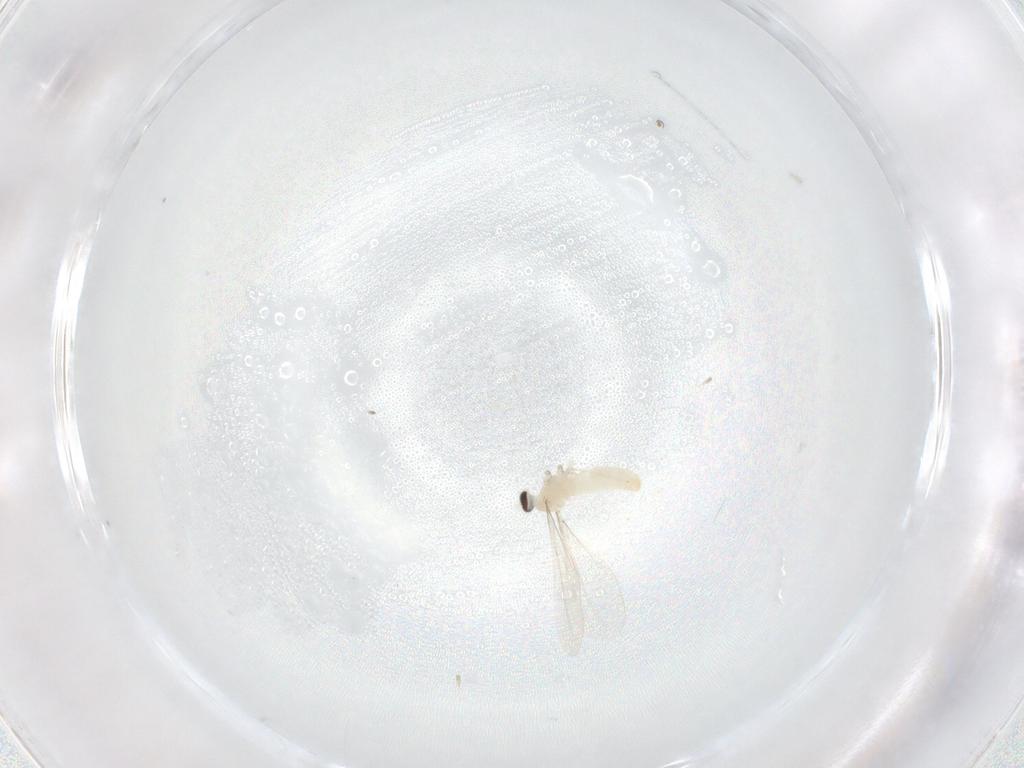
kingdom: Animalia
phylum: Arthropoda
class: Insecta
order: Diptera
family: Cecidomyiidae
